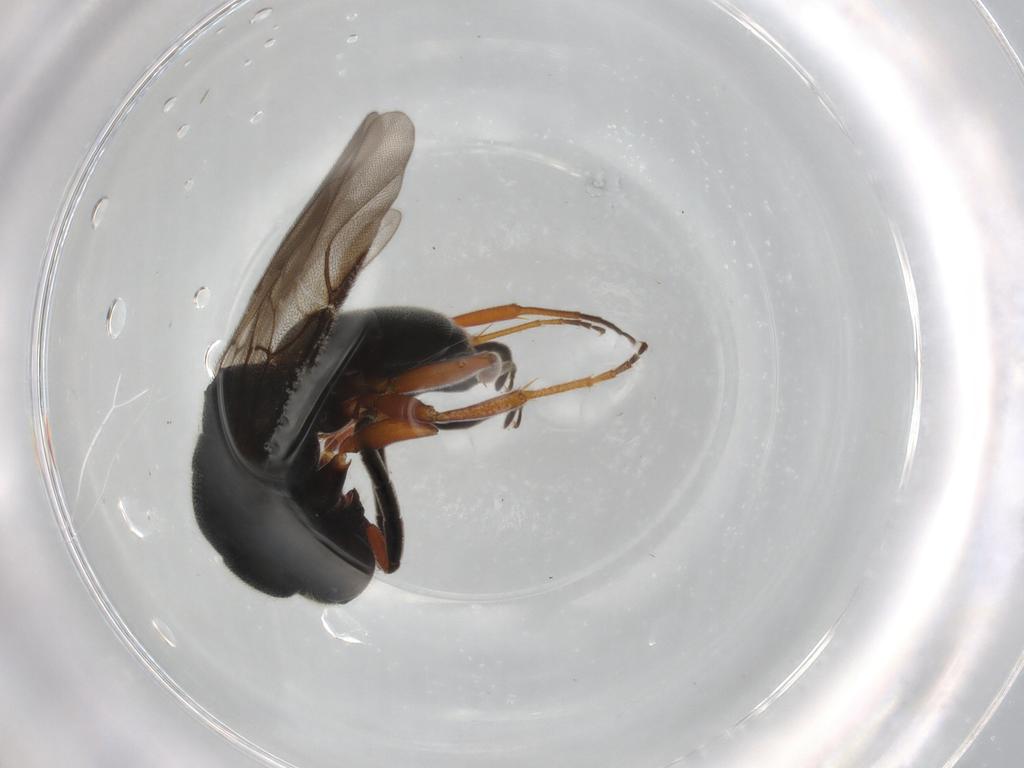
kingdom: Animalia
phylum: Arthropoda
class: Insecta
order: Hymenoptera
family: Chrysididae
